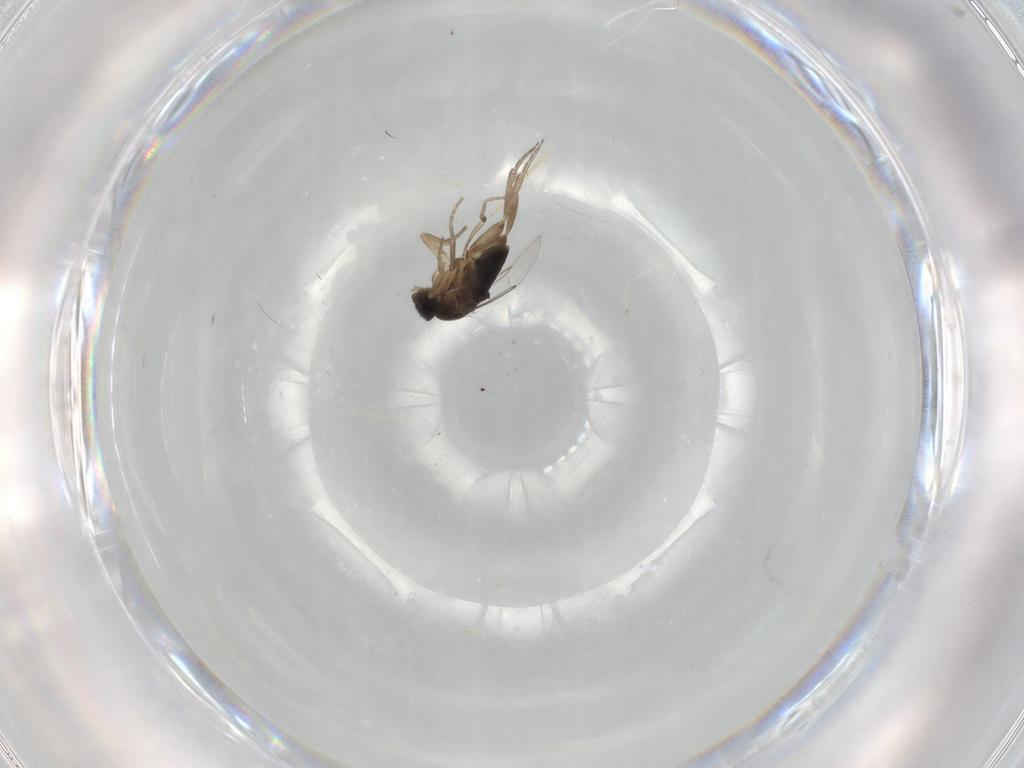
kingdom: Animalia
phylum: Arthropoda
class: Insecta
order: Diptera
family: Phoridae
